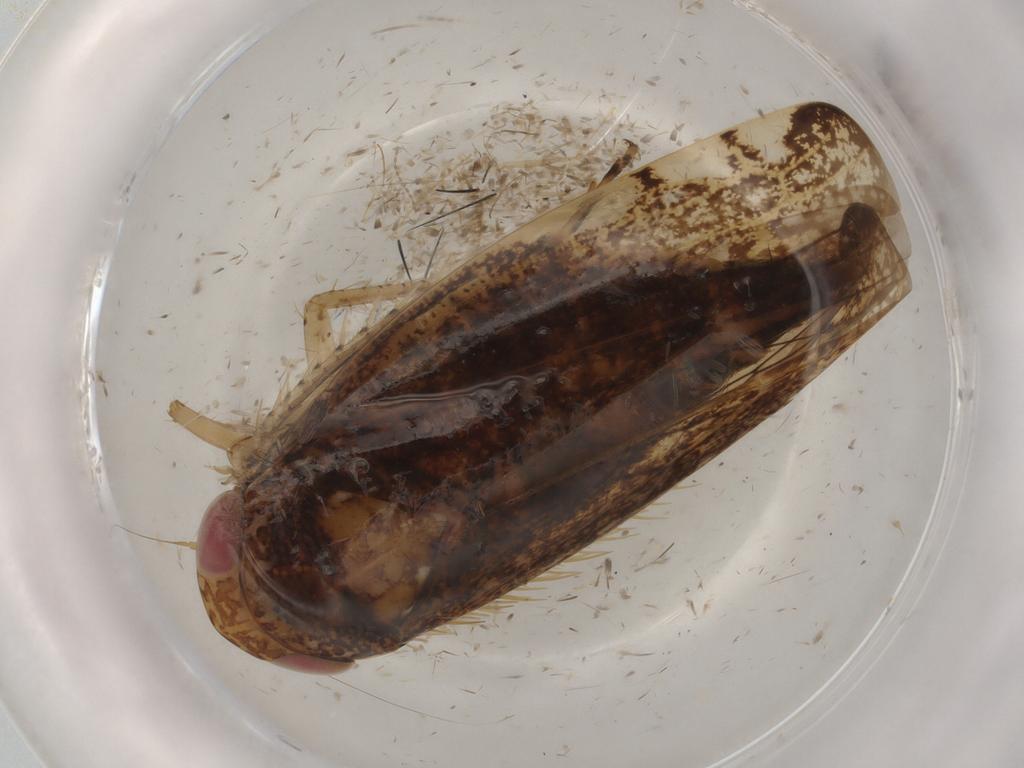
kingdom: Animalia
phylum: Arthropoda
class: Insecta
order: Hemiptera
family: Cicadellidae
